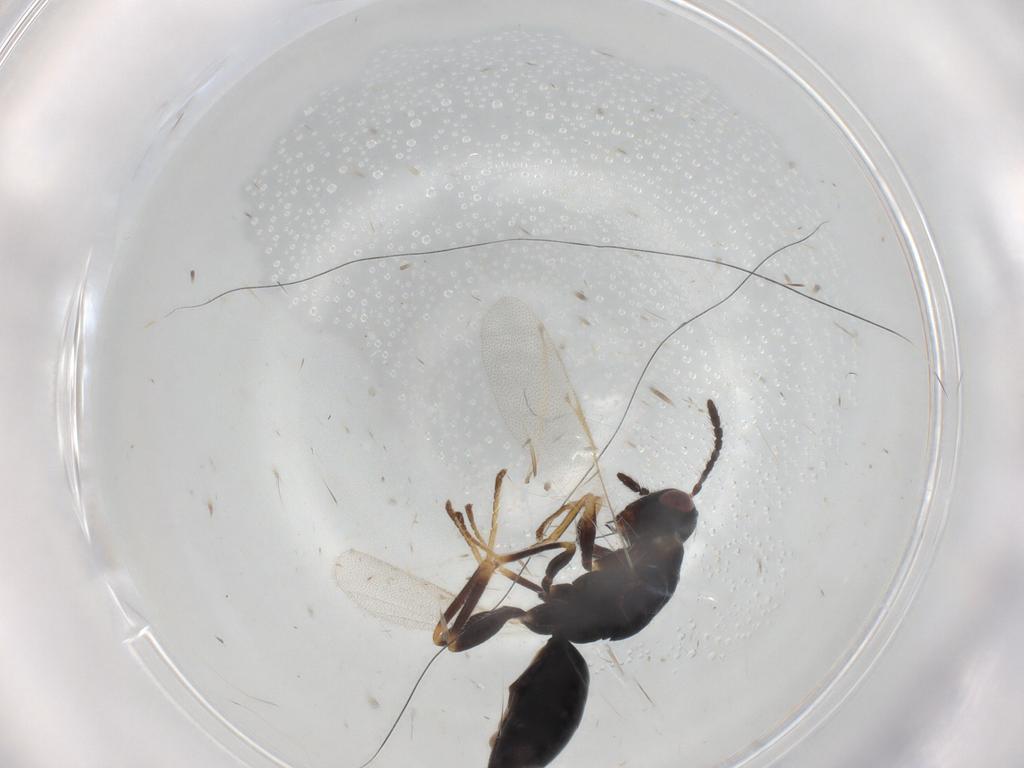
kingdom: Animalia
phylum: Arthropoda
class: Insecta
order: Hymenoptera
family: Eurytomidae
